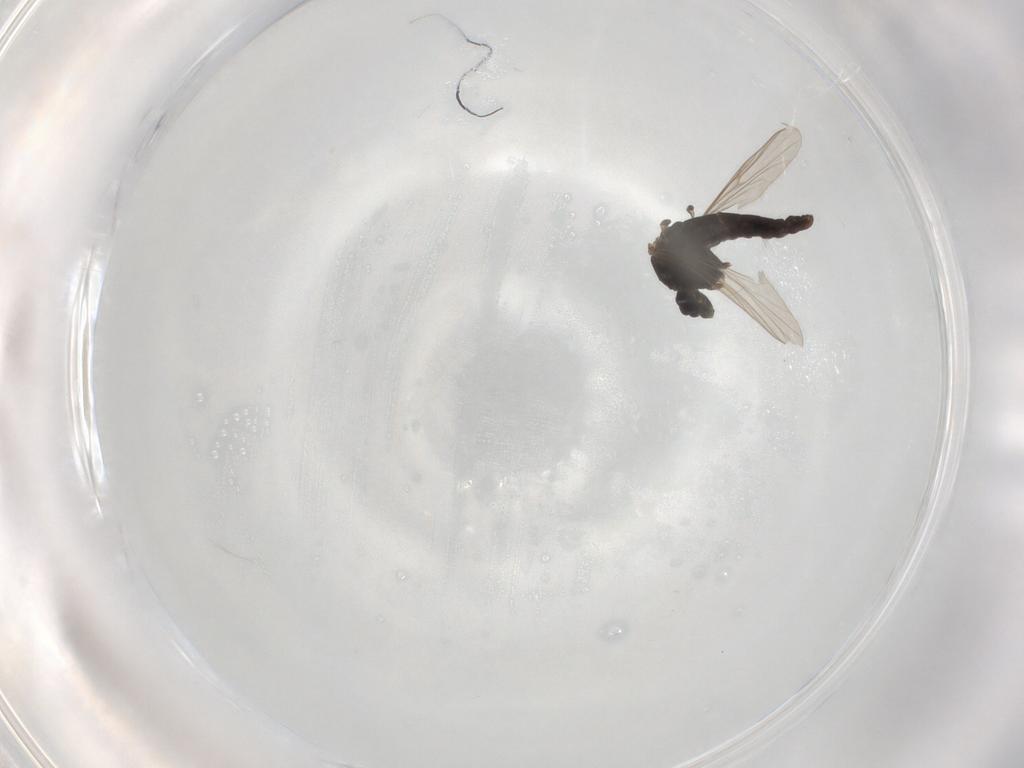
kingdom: Animalia
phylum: Arthropoda
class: Insecta
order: Diptera
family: Chironomidae
